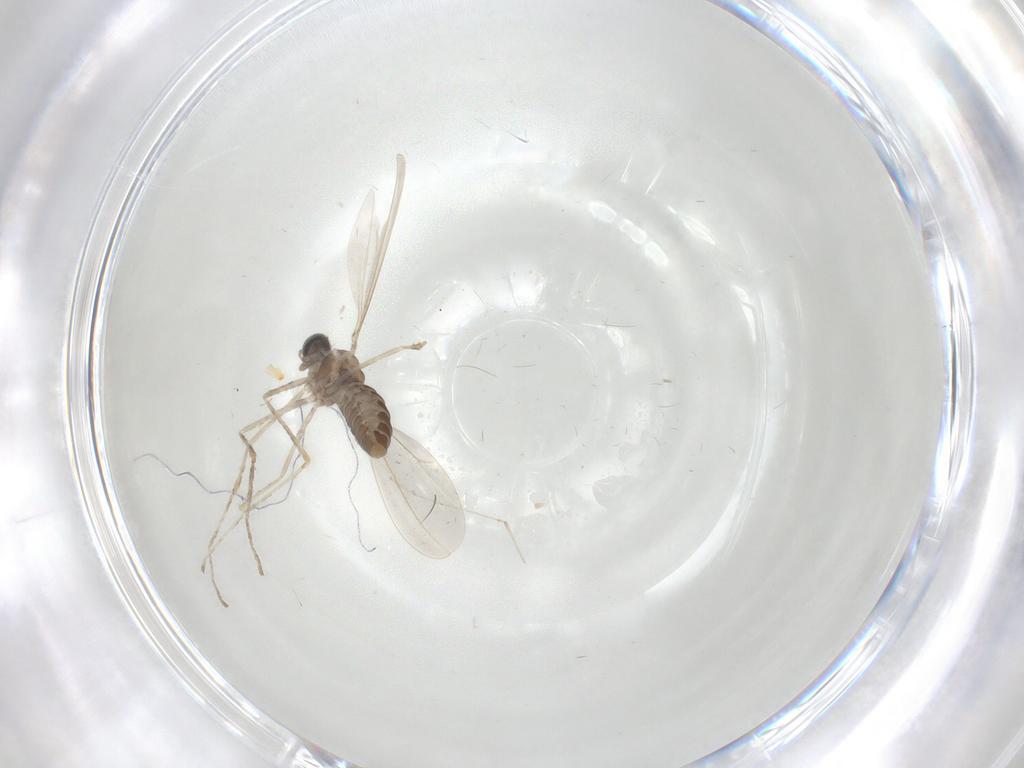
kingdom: Animalia
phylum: Arthropoda
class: Insecta
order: Diptera
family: Cecidomyiidae
